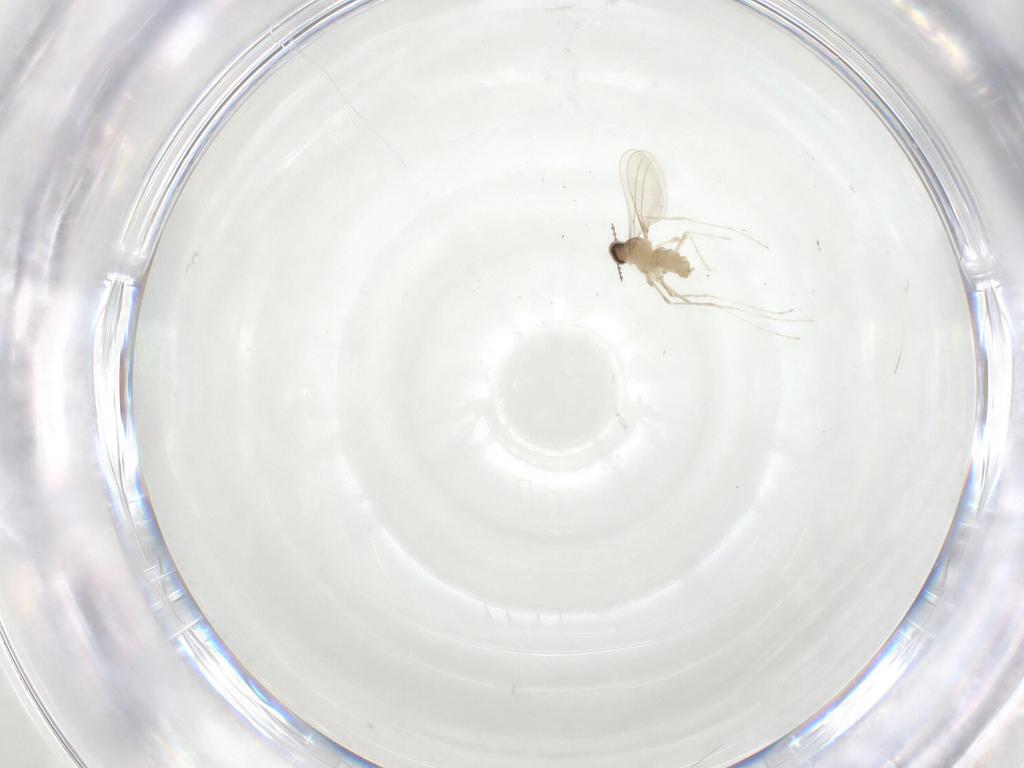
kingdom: Animalia
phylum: Arthropoda
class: Insecta
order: Diptera
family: Cecidomyiidae
